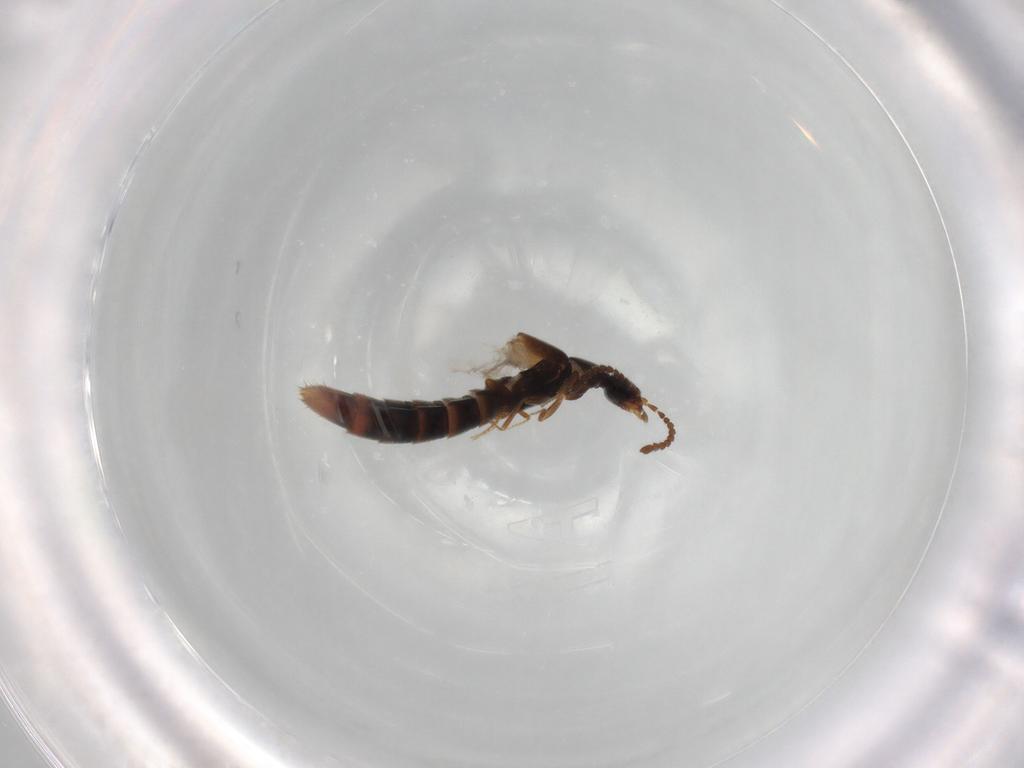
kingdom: Animalia
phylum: Arthropoda
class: Insecta
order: Coleoptera
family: Staphylinidae
